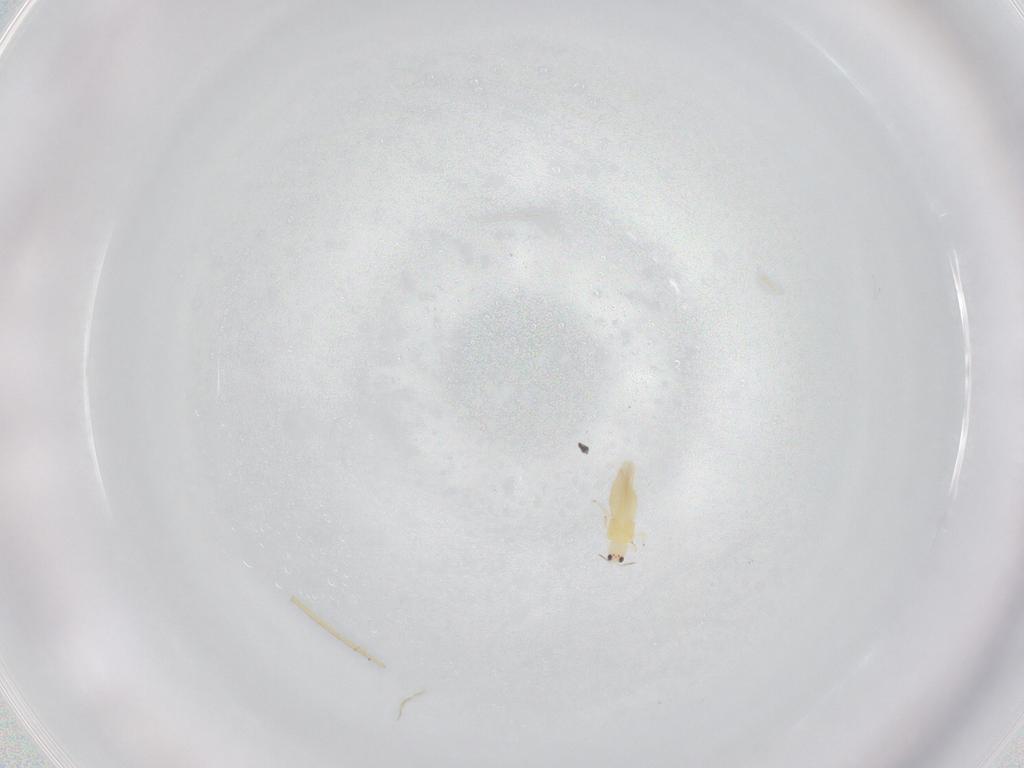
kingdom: Animalia
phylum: Arthropoda
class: Insecta
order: Thysanoptera
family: Thripidae
